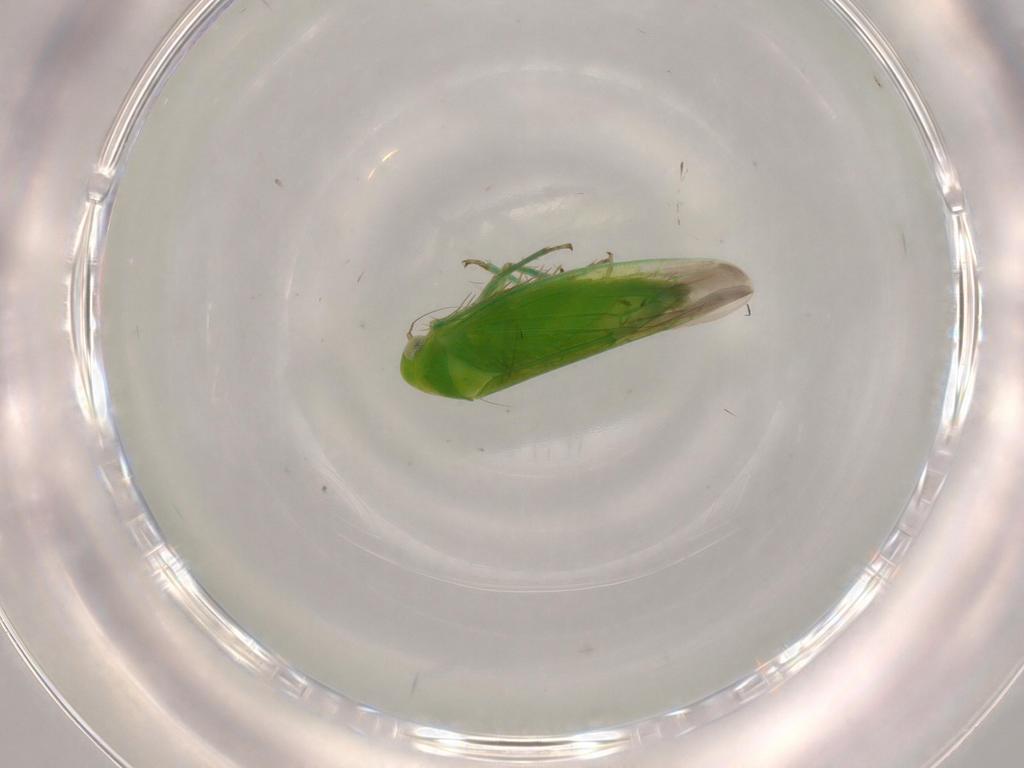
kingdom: Animalia
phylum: Arthropoda
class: Insecta
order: Hemiptera
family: Cicadellidae
